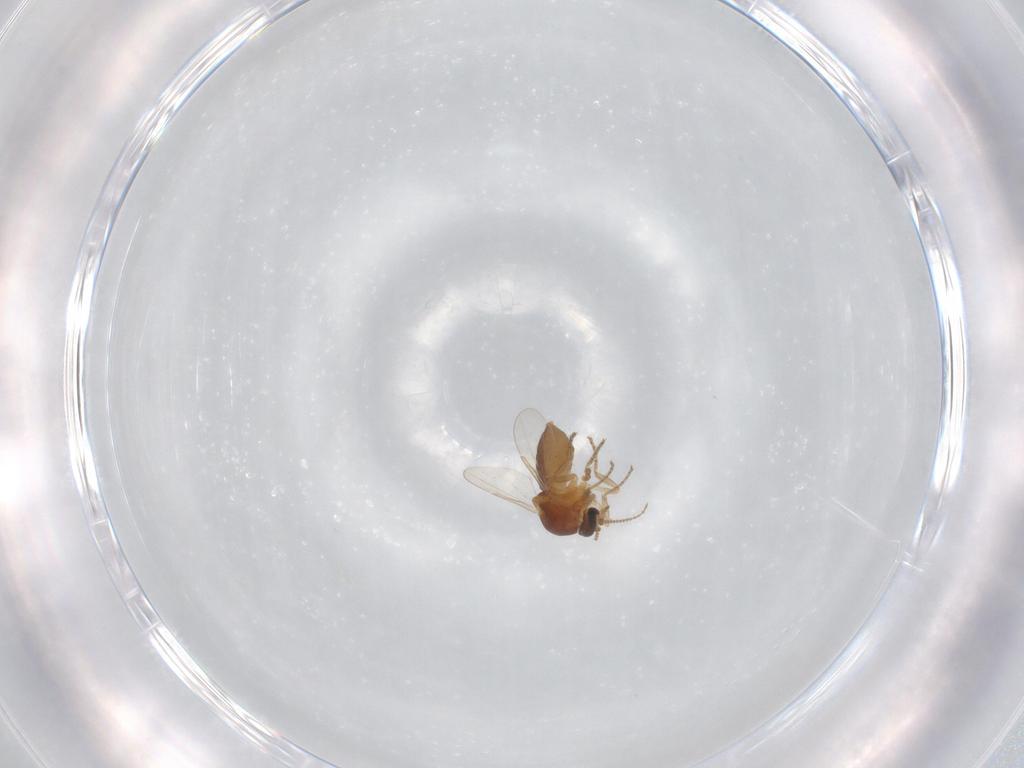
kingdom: Animalia
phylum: Arthropoda
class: Insecta
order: Diptera
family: Ceratopogonidae
